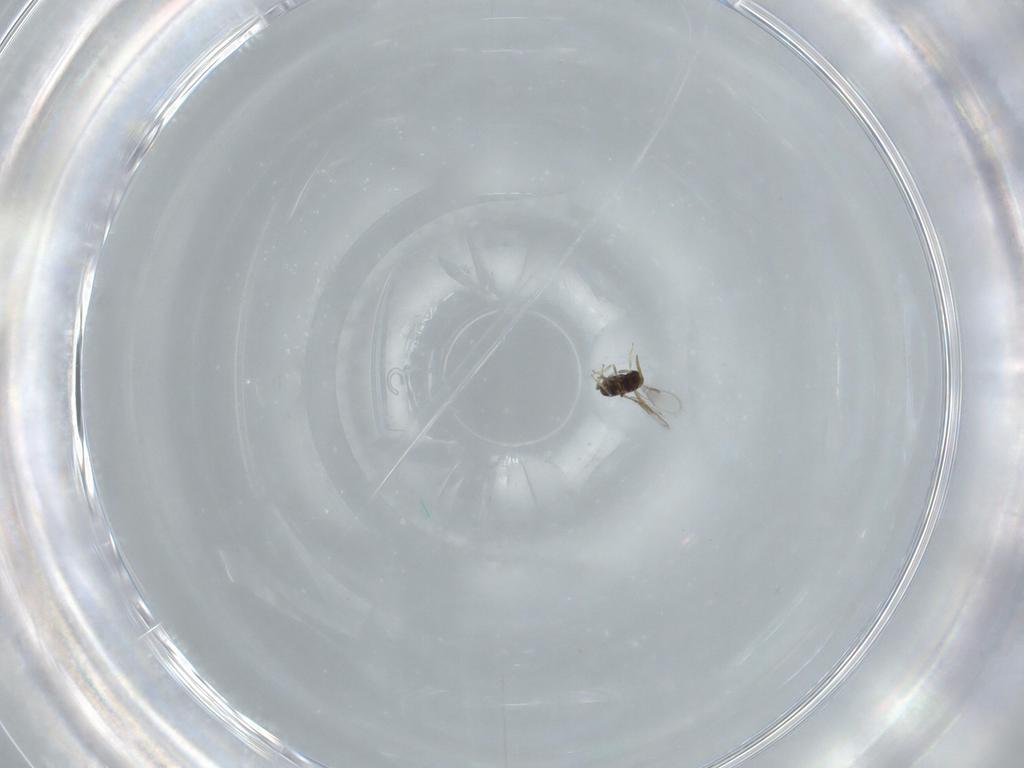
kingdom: Animalia
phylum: Arthropoda
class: Insecta
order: Hymenoptera
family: Aphelinidae
